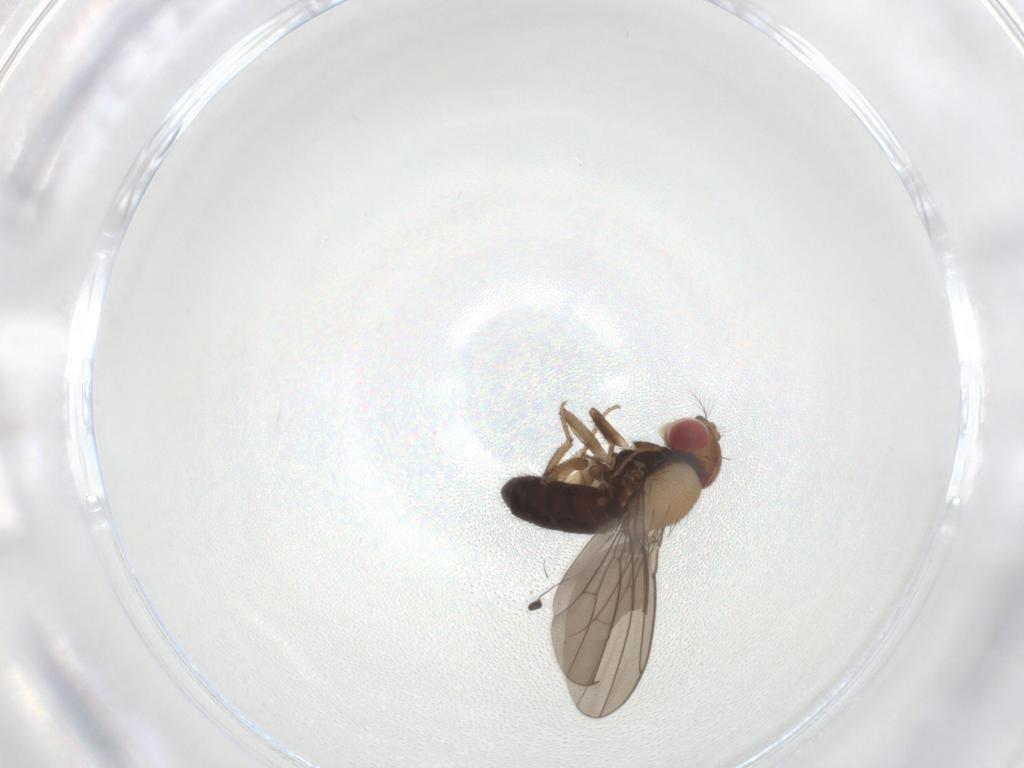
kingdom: Animalia
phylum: Arthropoda
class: Insecta
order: Diptera
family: Drosophilidae
